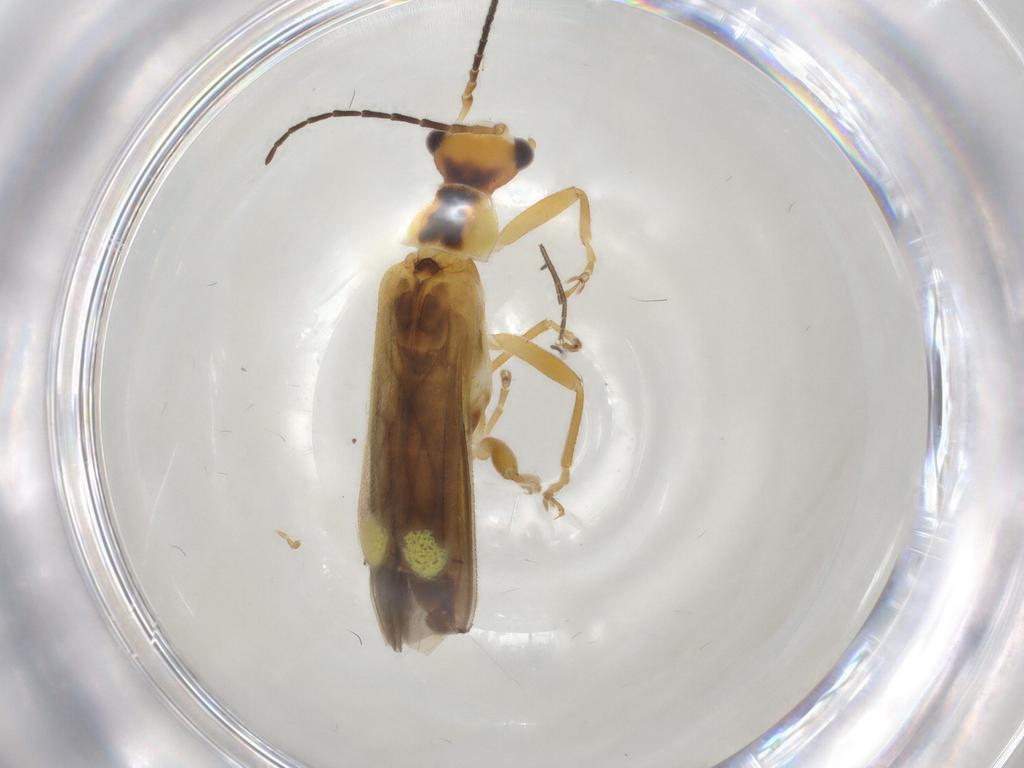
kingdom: Animalia
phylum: Arthropoda
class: Insecta
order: Coleoptera
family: Cantharidae
